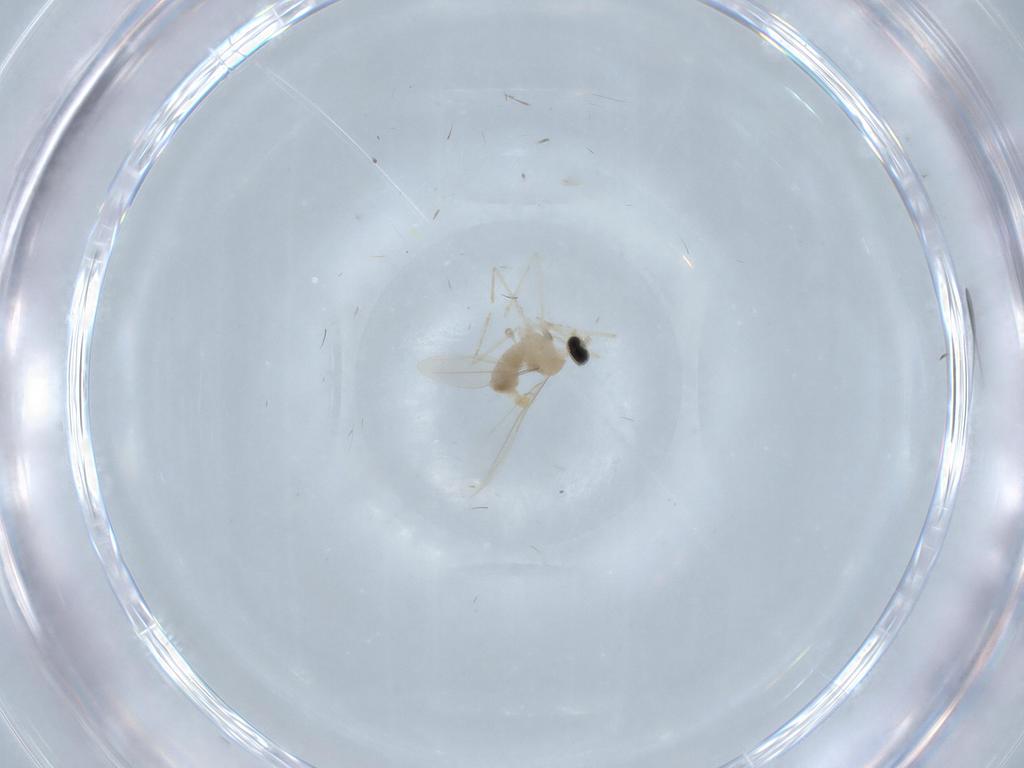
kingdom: Animalia
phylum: Arthropoda
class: Insecta
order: Diptera
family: Cecidomyiidae
